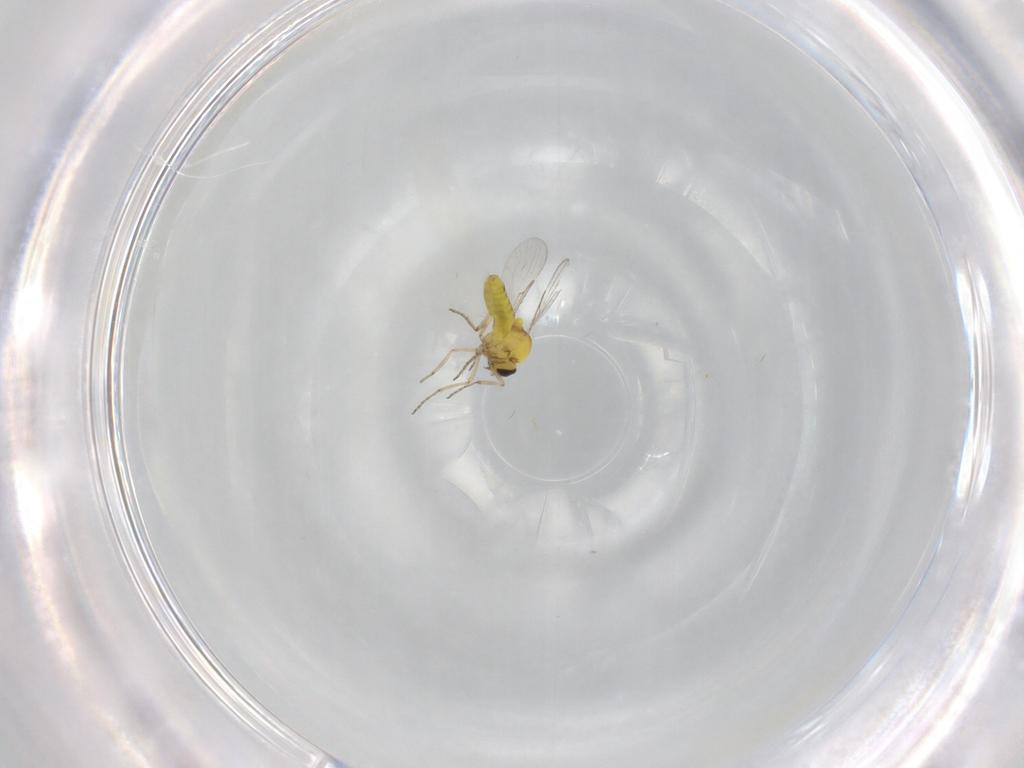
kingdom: Animalia
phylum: Arthropoda
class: Insecta
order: Diptera
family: Ceratopogonidae
